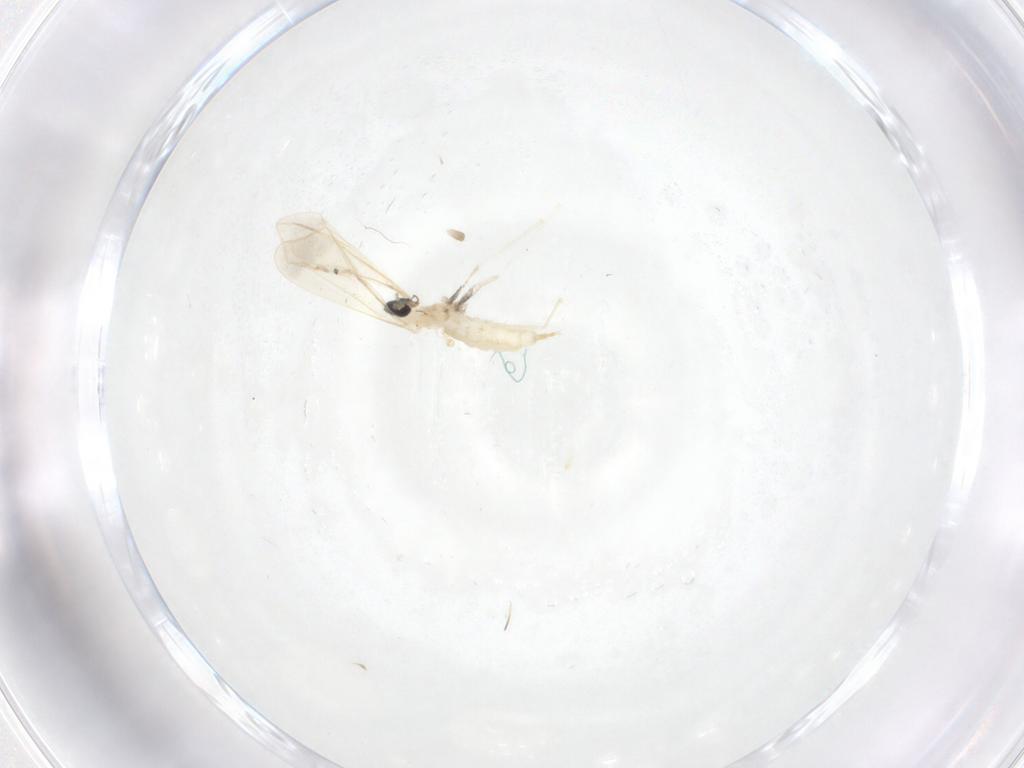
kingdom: Animalia
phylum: Arthropoda
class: Insecta
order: Diptera
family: Cecidomyiidae
